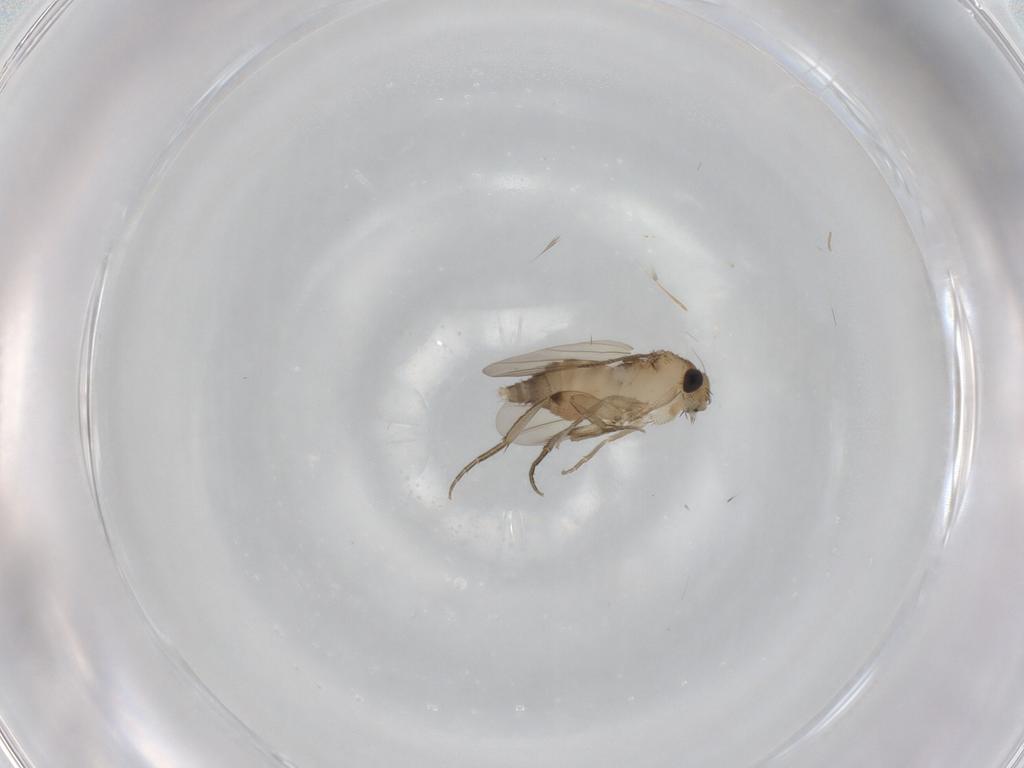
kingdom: Animalia
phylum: Arthropoda
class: Insecta
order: Diptera
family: Phoridae
